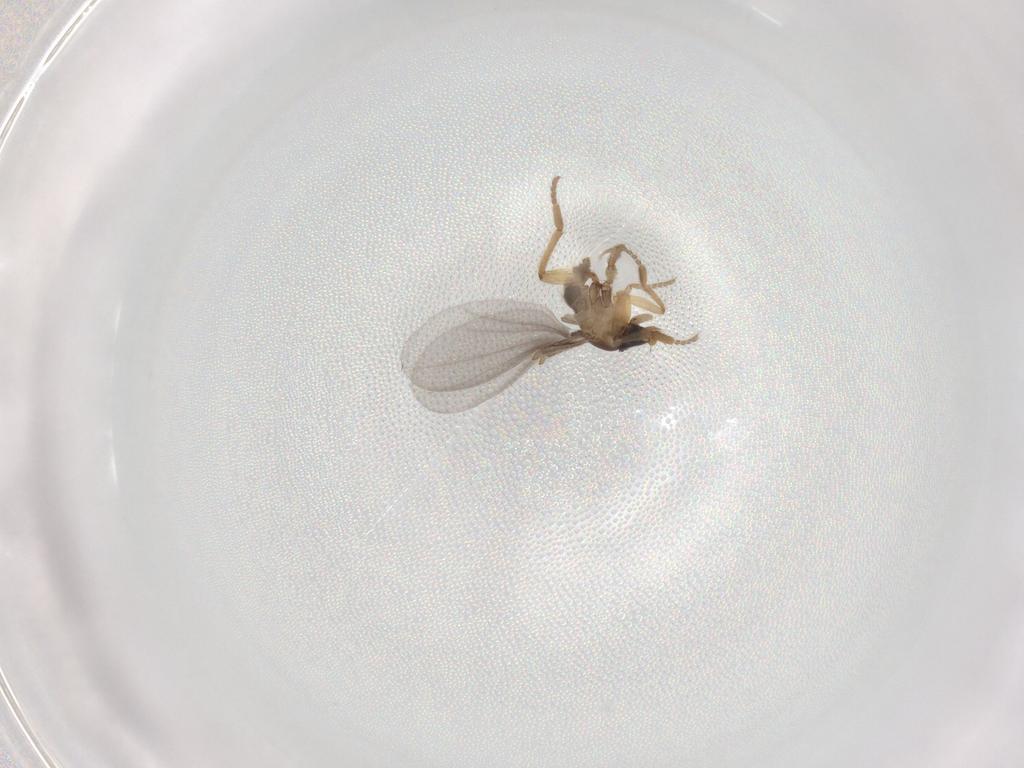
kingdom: Animalia
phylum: Arthropoda
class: Insecta
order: Diptera
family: Phoridae
